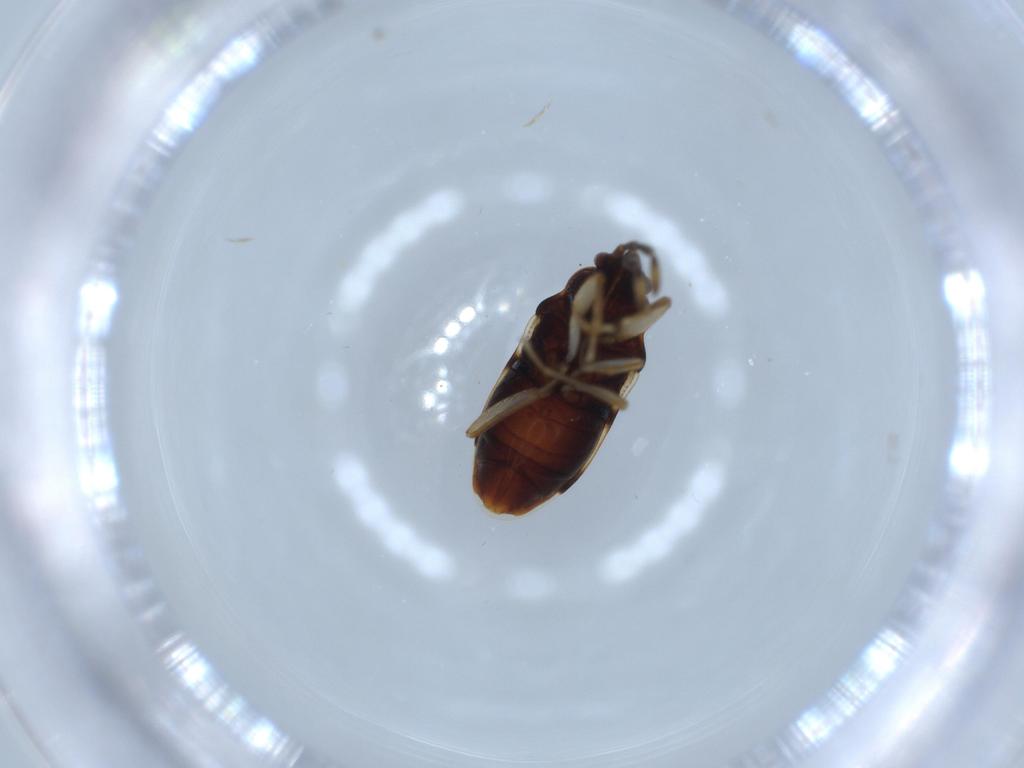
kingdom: Animalia
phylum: Arthropoda
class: Insecta
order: Hemiptera
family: Rhyparochromidae
